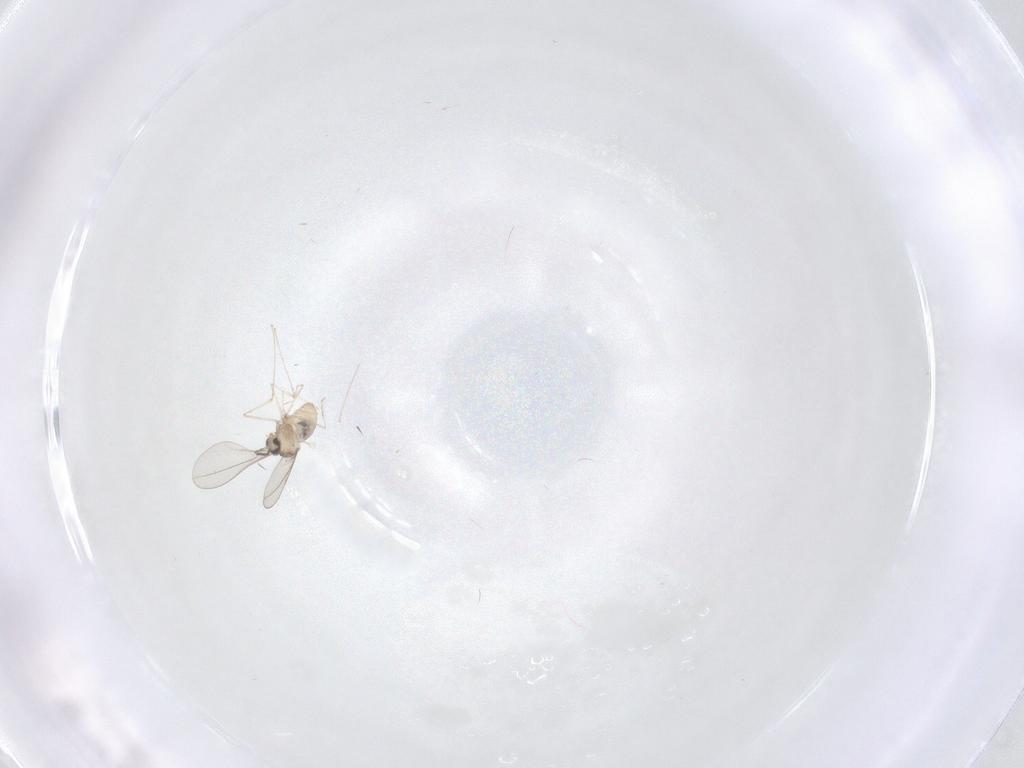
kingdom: Animalia
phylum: Arthropoda
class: Insecta
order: Diptera
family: Cecidomyiidae
